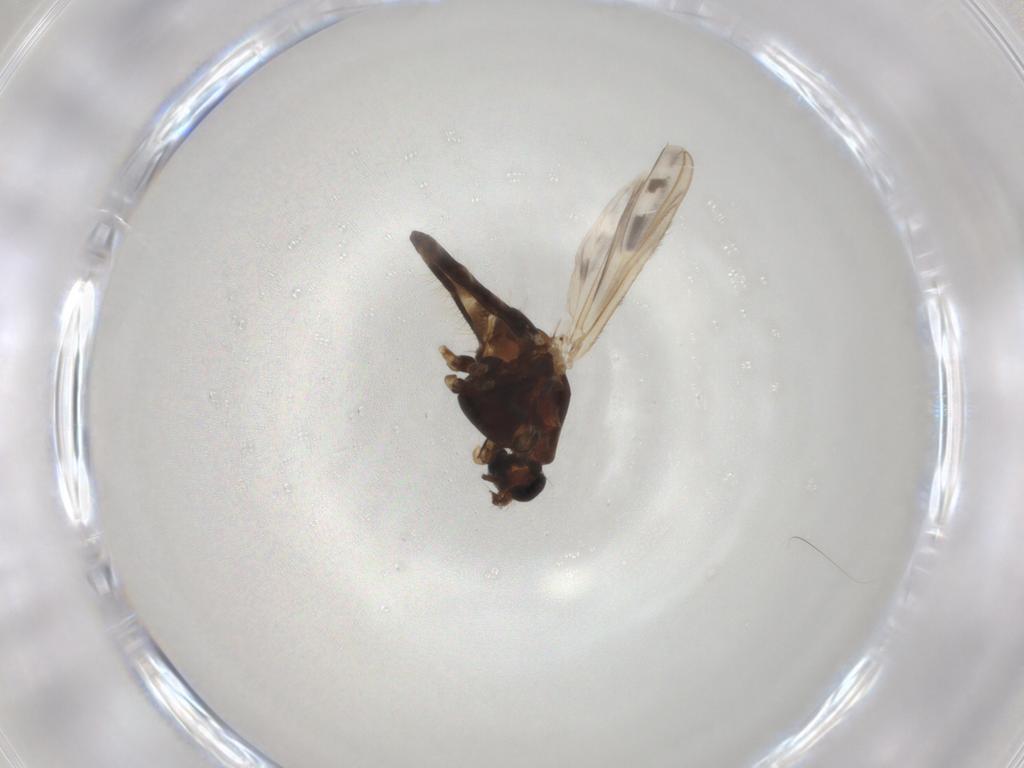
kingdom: Animalia
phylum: Arthropoda
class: Insecta
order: Diptera
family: Ceratopogonidae
